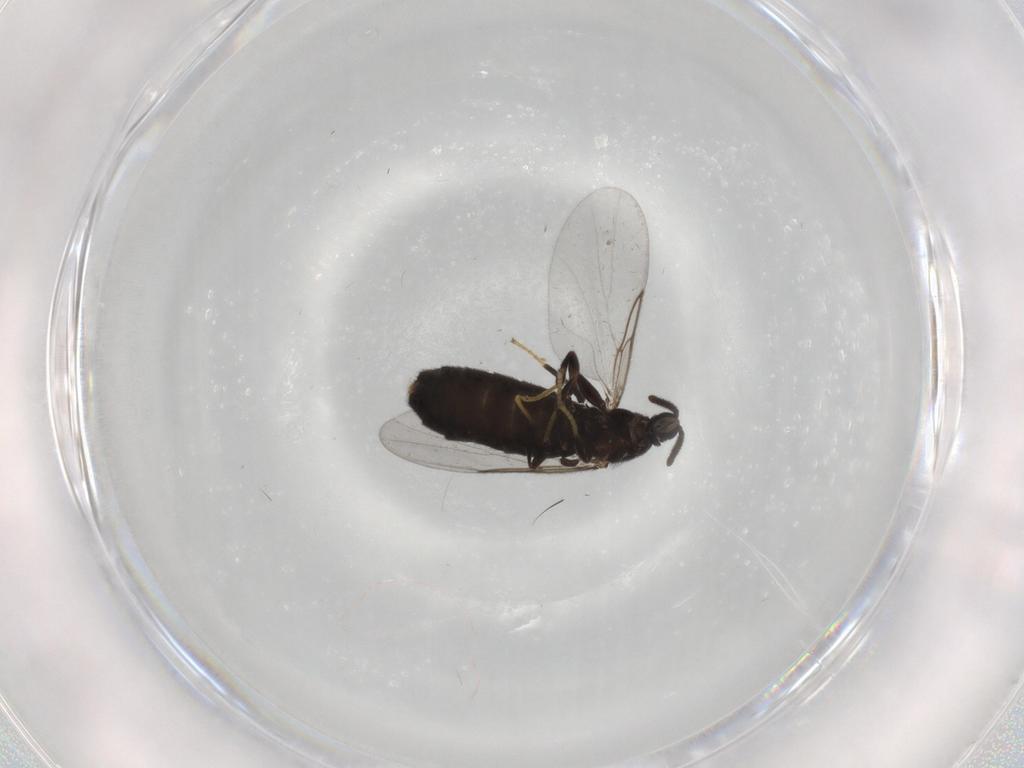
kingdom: Animalia
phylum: Arthropoda
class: Insecta
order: Diptera
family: Scatopsidae
